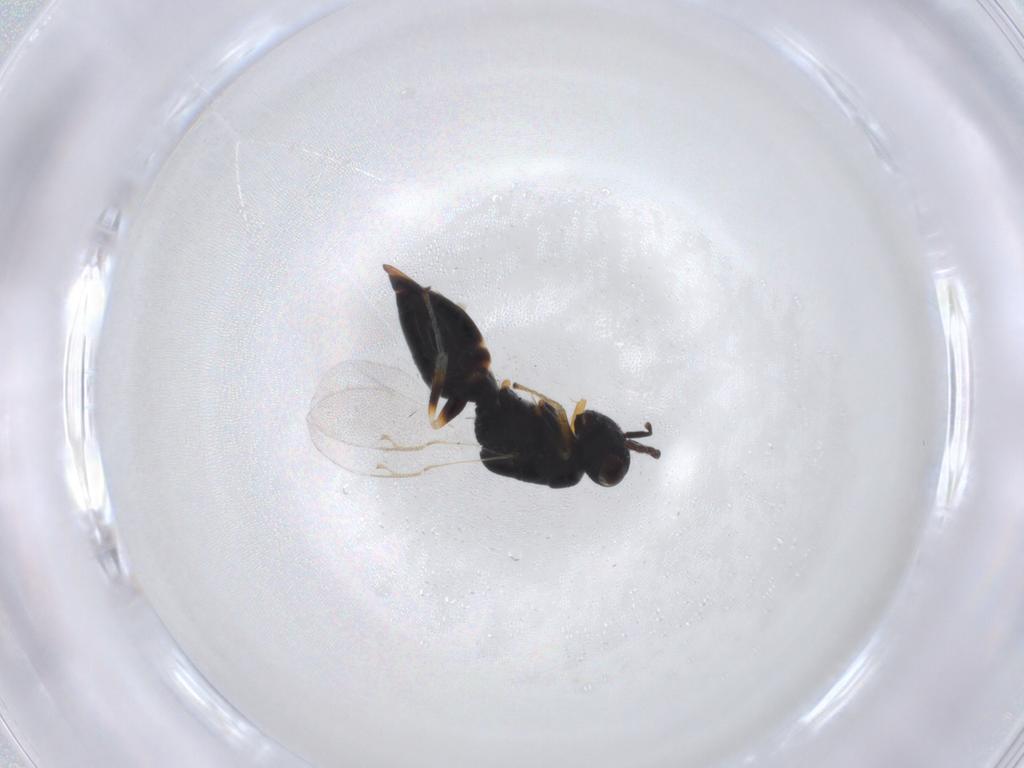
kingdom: Animalia
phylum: Arthropoda
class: Insecta
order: Hymenoptera
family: Eurytomidae
